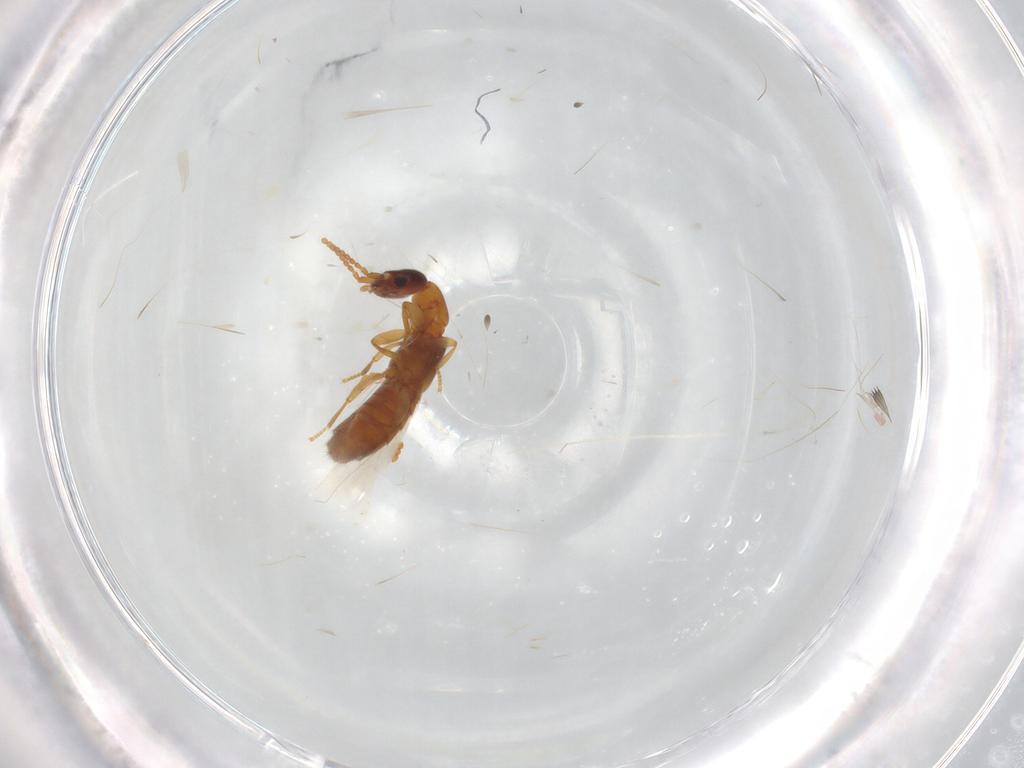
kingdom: Animalia
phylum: Arthropoda
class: Insecta
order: Coleoptera
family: Staphylinidae
